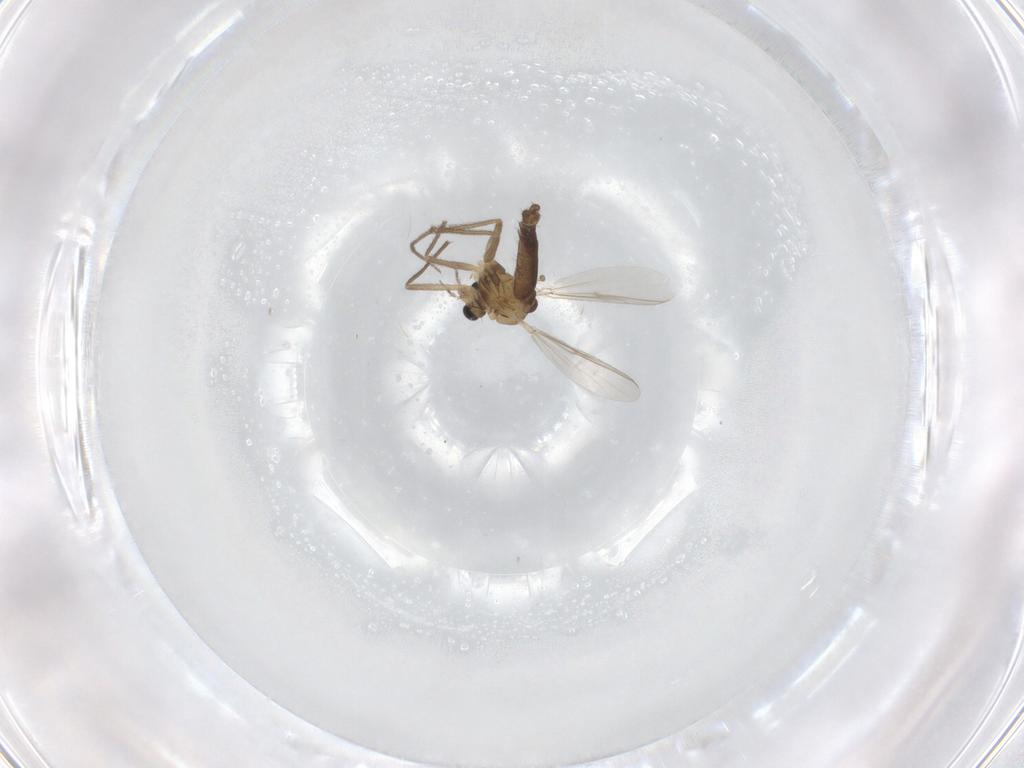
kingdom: Animalia
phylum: Arthropoda
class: Insecta
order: Diptera
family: Chironomidae
